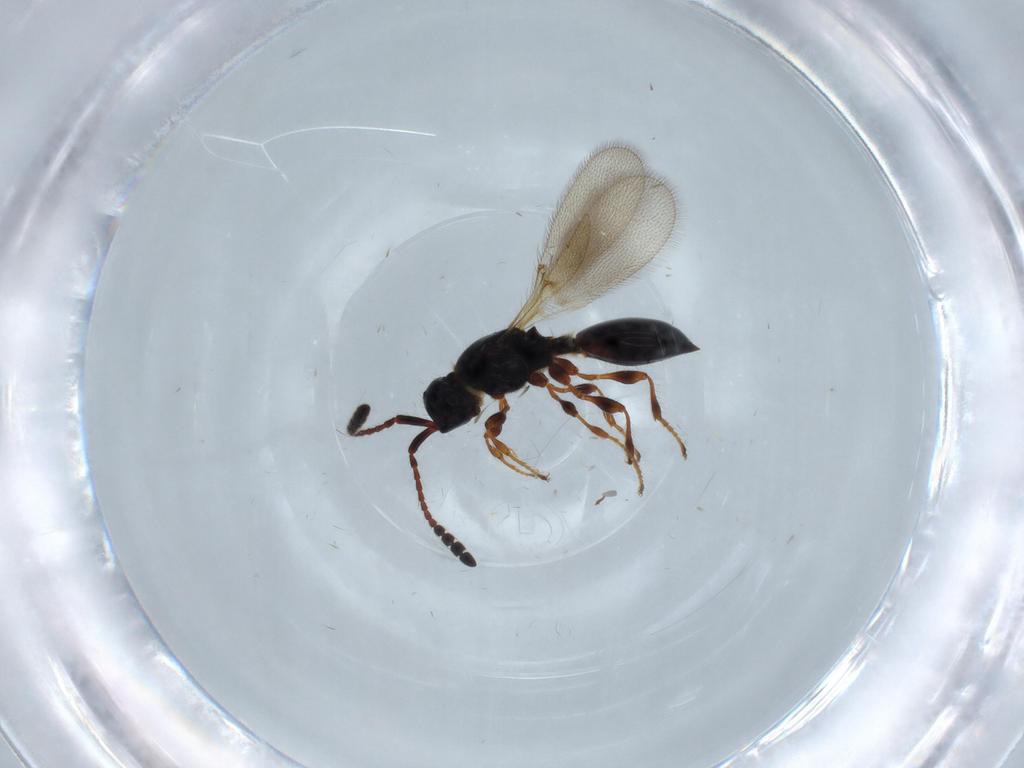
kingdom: Animalia
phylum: Arthropoda
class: Insecta
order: Hymenoptera
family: Diapriidae
